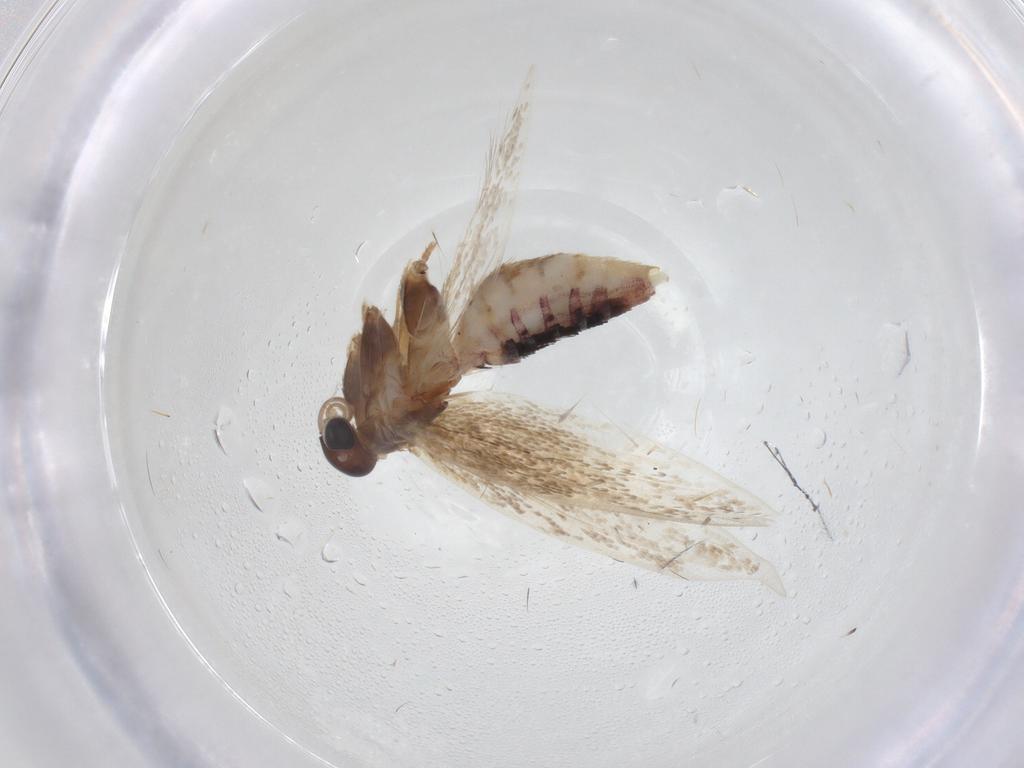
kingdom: Animalia
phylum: Arthropoda
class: Insecta
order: Lepidoptera
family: Cosmopterigidae
